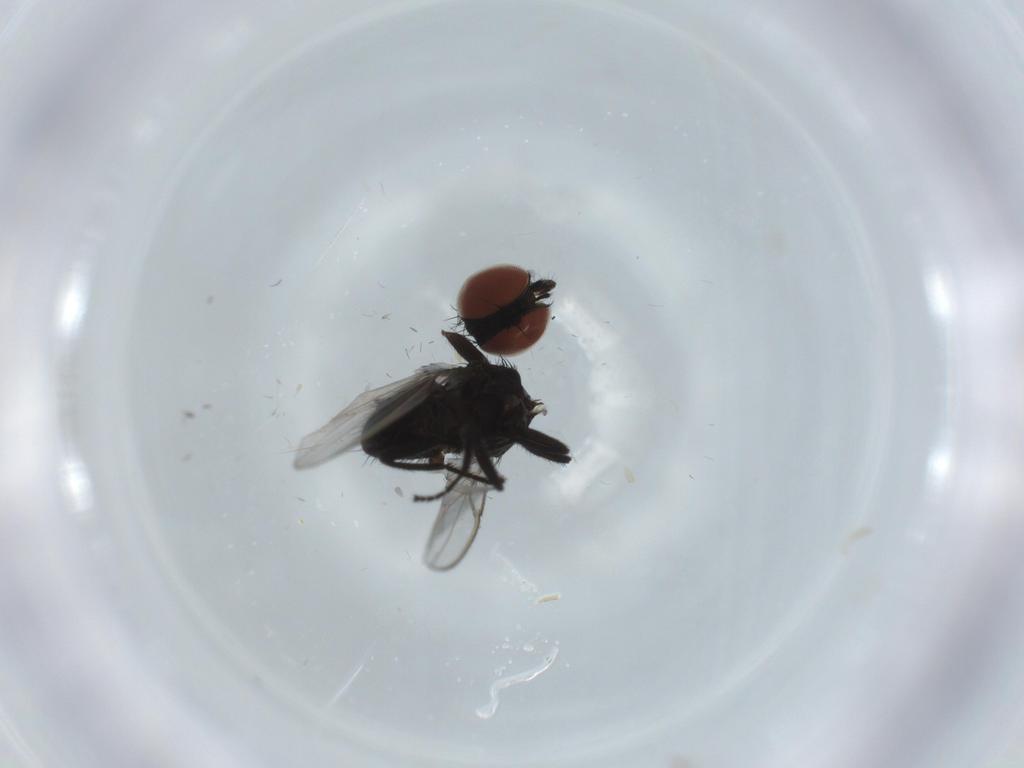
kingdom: Animalia
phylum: Arthropoda
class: Insecta
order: Diptera
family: Milichiidae
